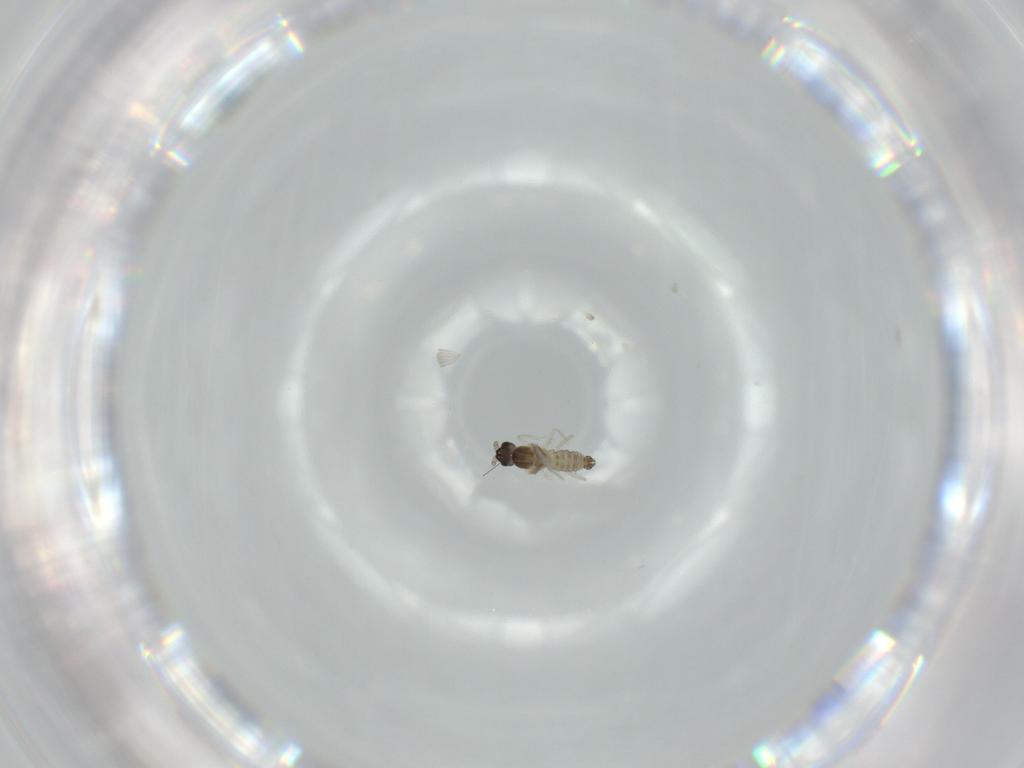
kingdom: Animalia
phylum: Arthropoda
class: Insecta
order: Diptera
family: Cecidomyiidae
